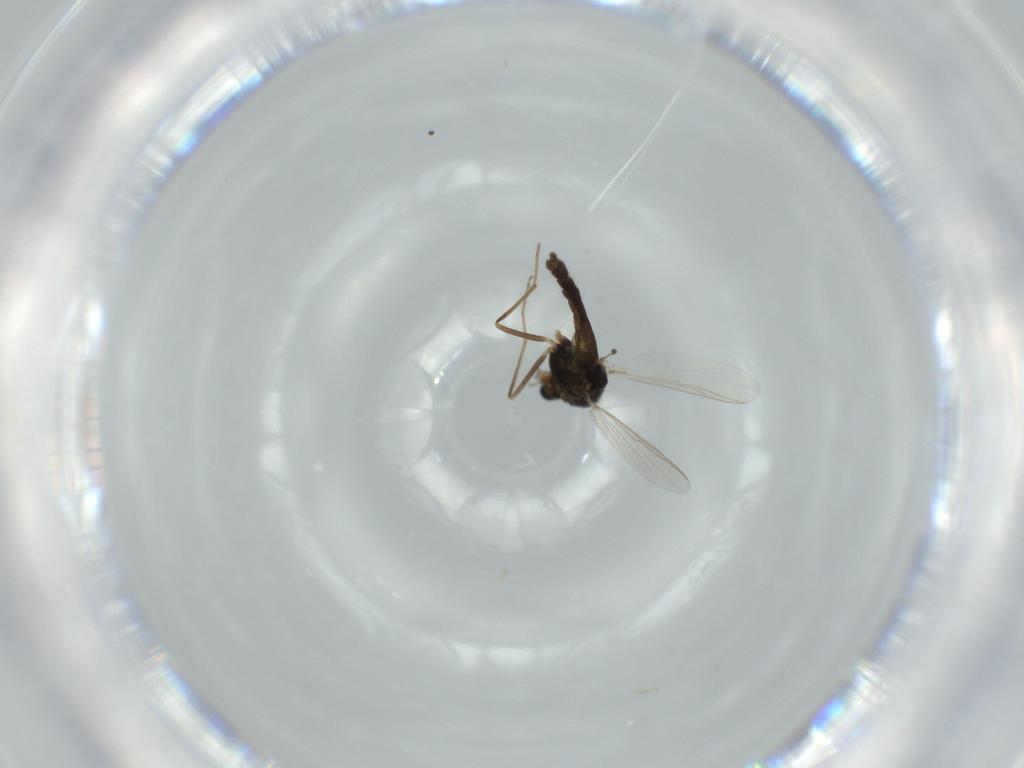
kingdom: Animalia
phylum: Arthropoda
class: Insecta
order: Diptera
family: Chironomidae
